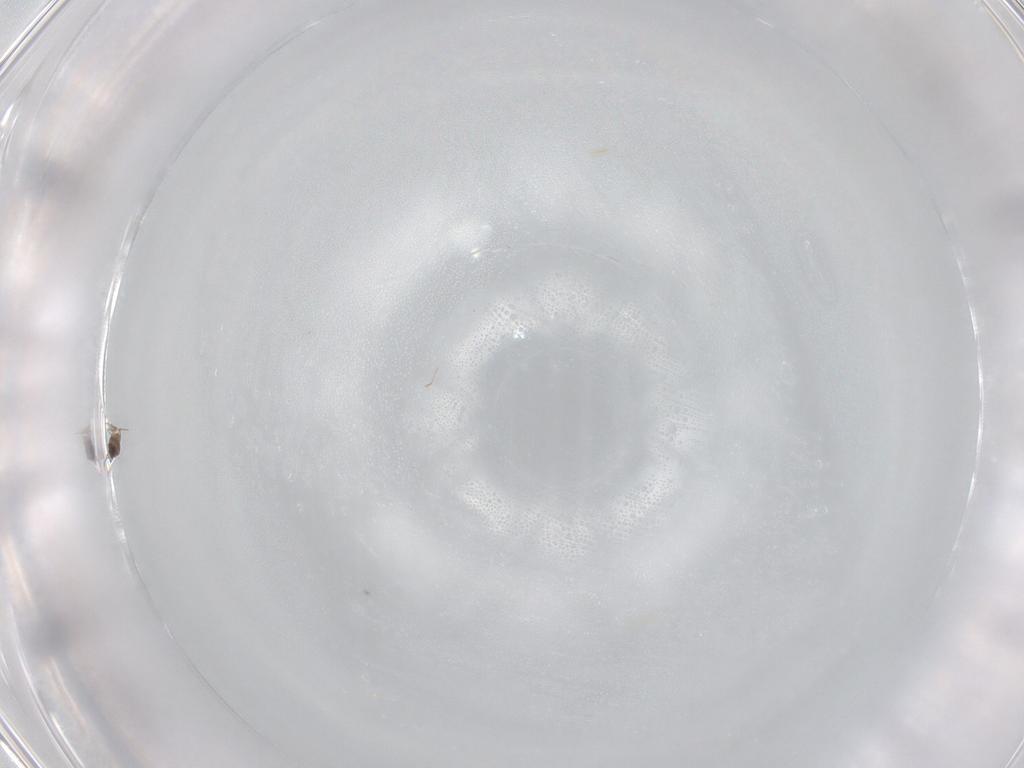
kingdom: Animalia
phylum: Arthropoda
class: Insecta
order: Hymenoptera
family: Mymaridae
